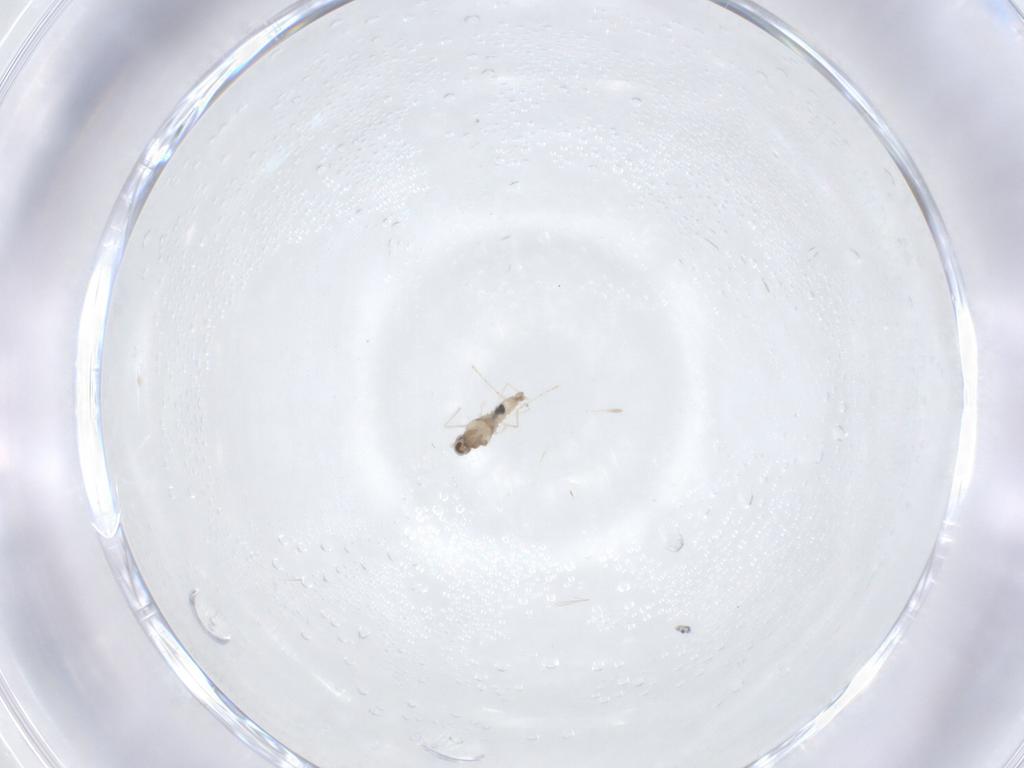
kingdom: Animalia
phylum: Arthropoda
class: Insecta
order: Diptera
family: Cecidomyiidae
